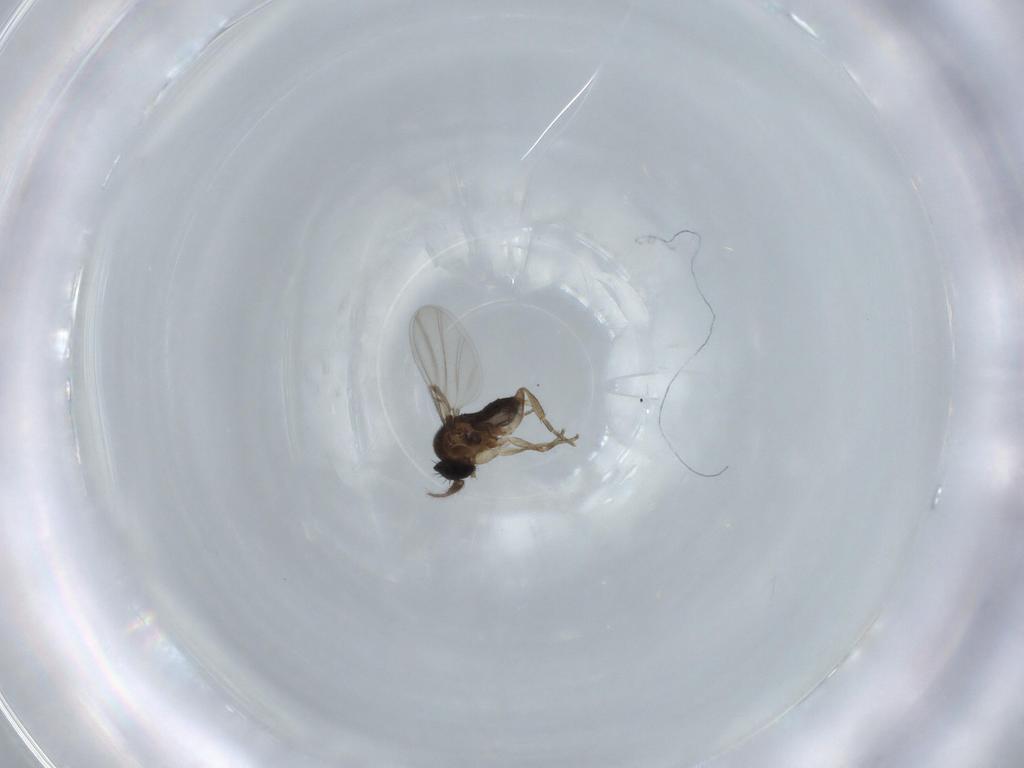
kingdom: Animalia
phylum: Arthropoda
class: Insecta
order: Diptera
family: Phoridae
